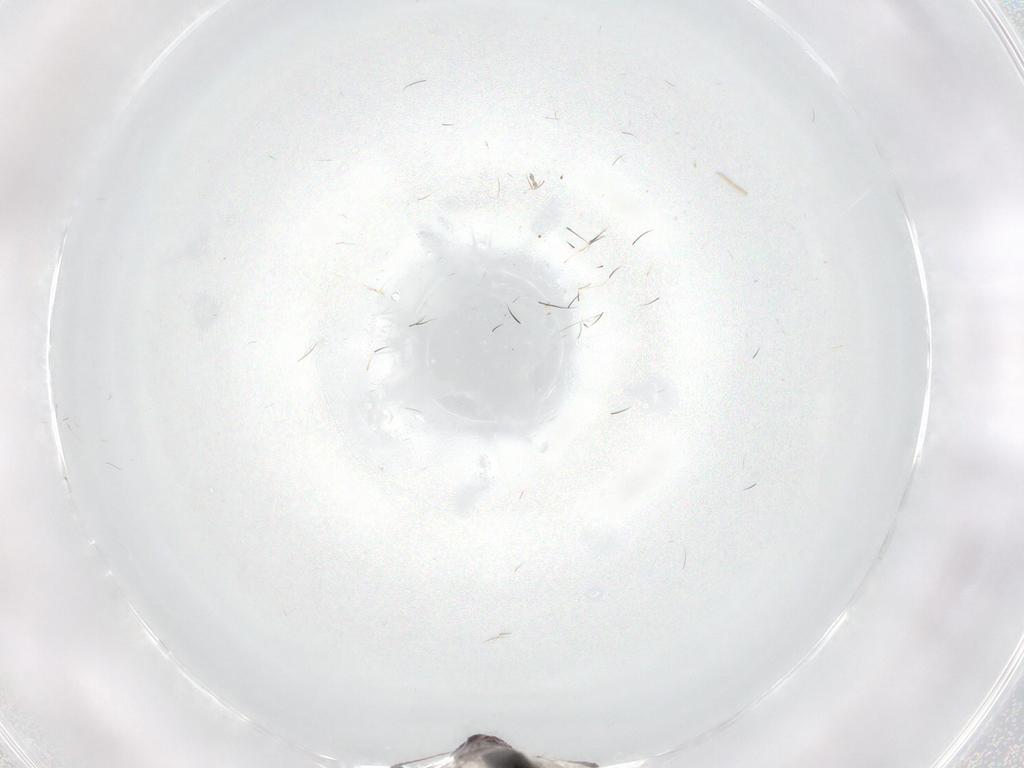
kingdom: Animalia
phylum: Arthropoda
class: Insecta
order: Hymenoptera
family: Diapriidae
